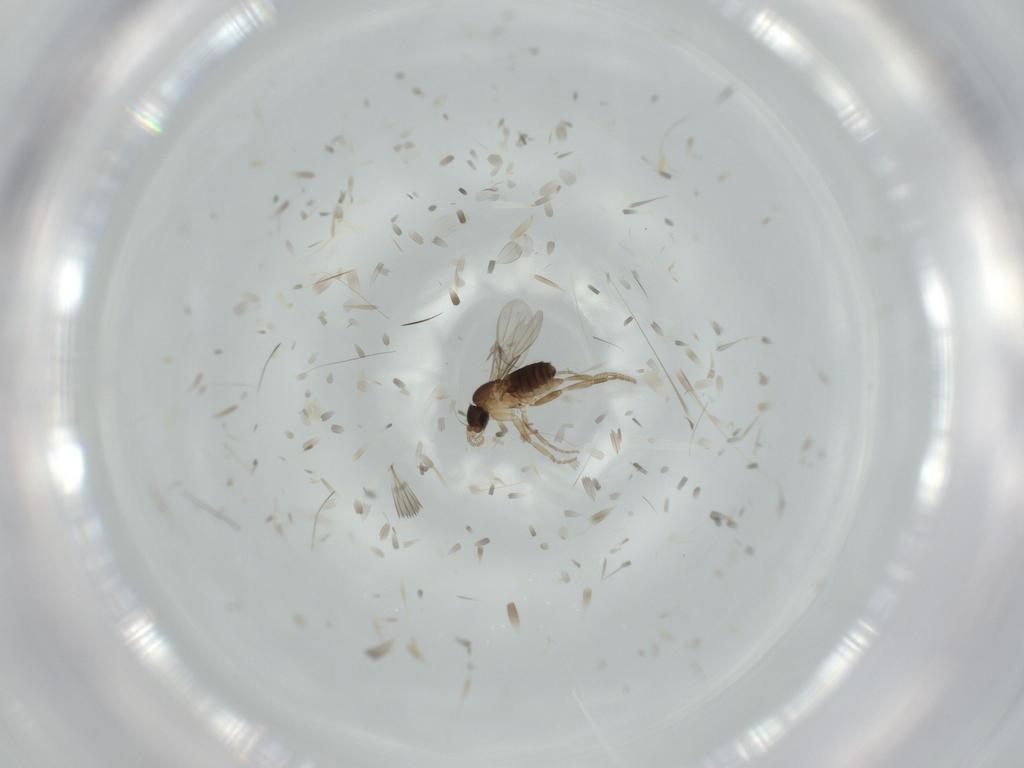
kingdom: Animalia
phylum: Arthropoda
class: Insecta
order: Diptera
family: Phoridae
